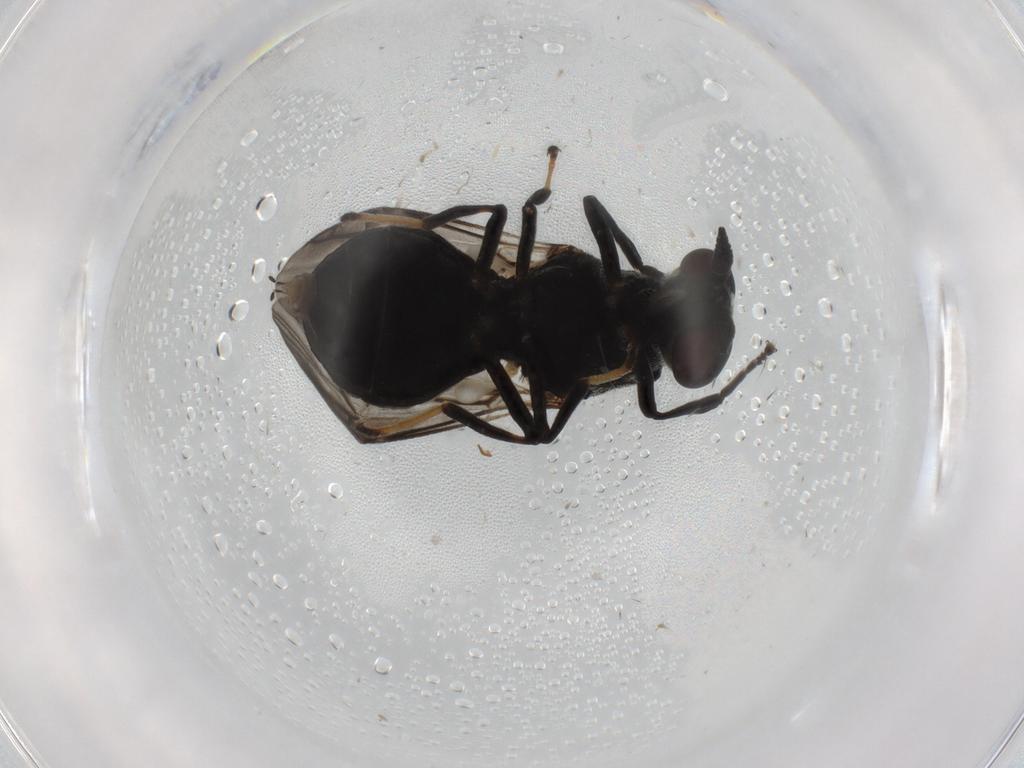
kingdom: Animalia
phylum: Arthropoda
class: Insecta
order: Diptera
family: Stratiomyidae
